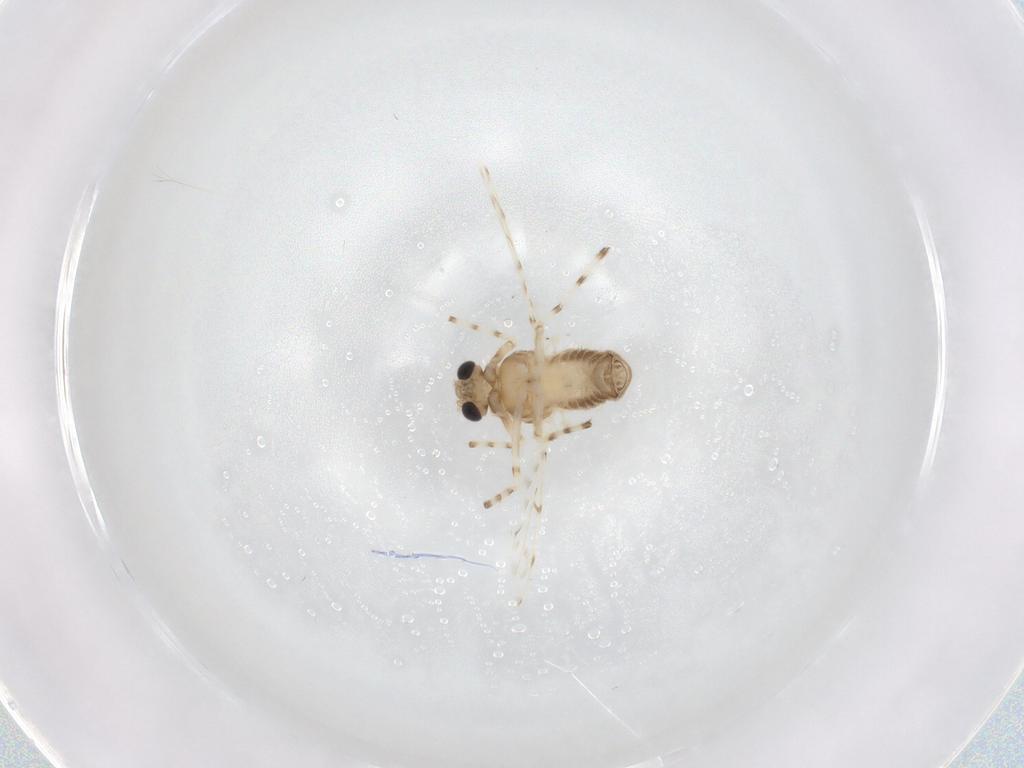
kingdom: Animalia
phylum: Arthropoda
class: Insecta
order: Diptera
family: Chironomidae
